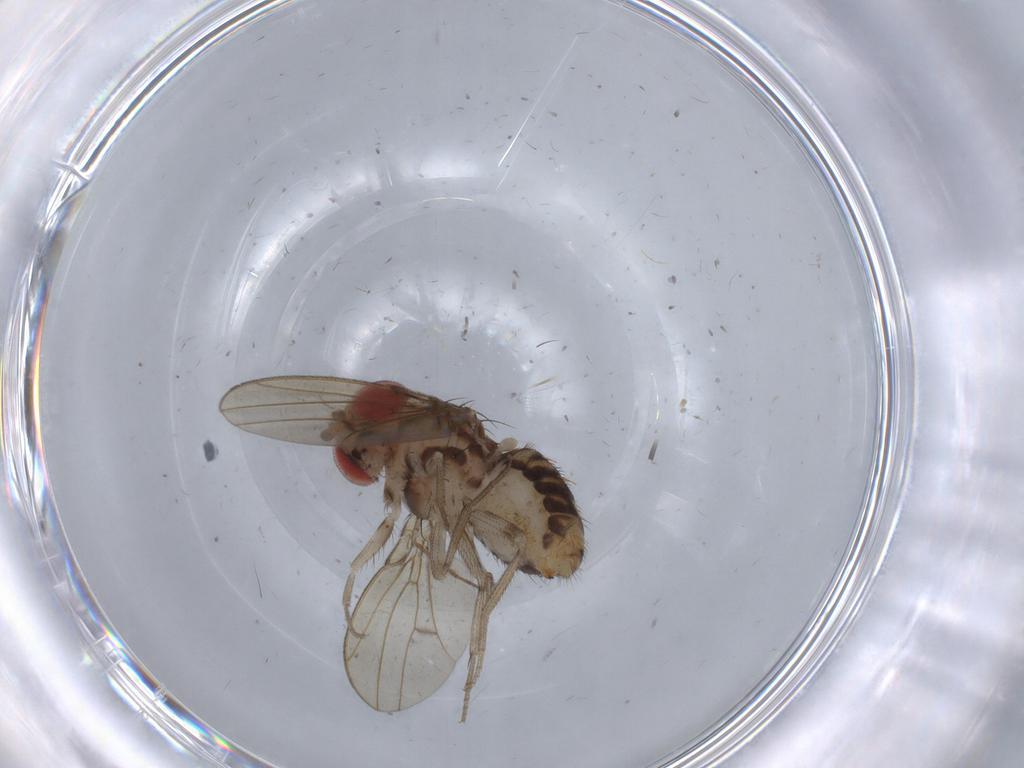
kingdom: Animalia
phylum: Arthropoda
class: Insecta
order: Diptera
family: Drosophilidae
